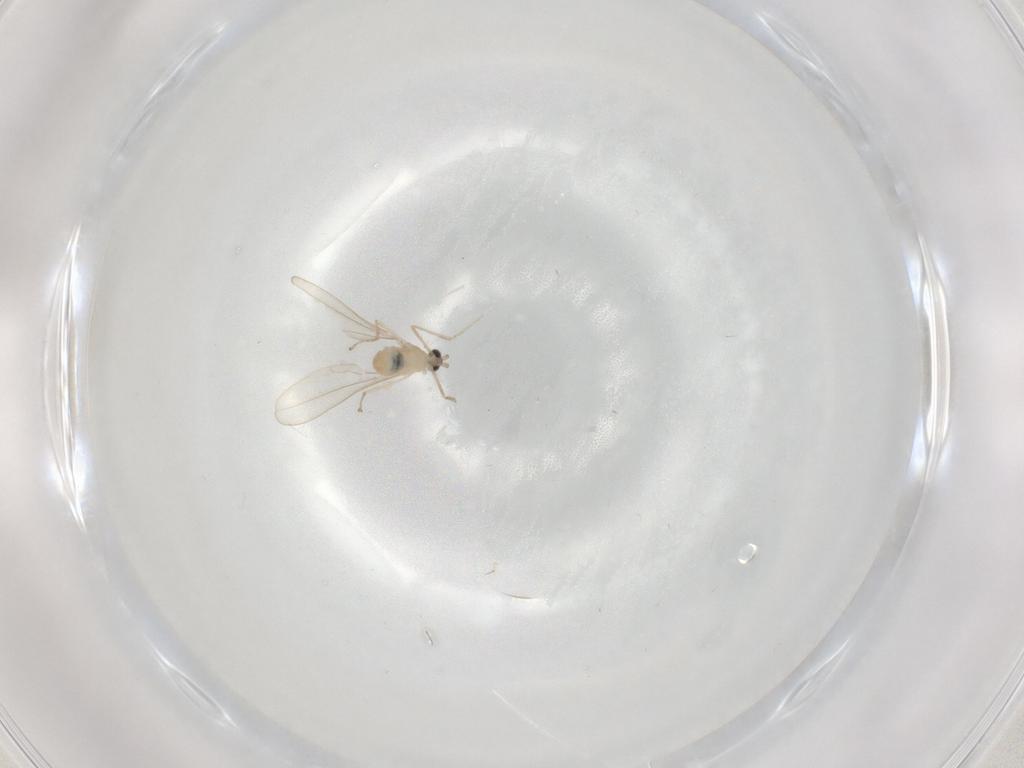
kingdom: Animalia
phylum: Arthropoda
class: Insecta
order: Diptera
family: Cecidomyiidae
